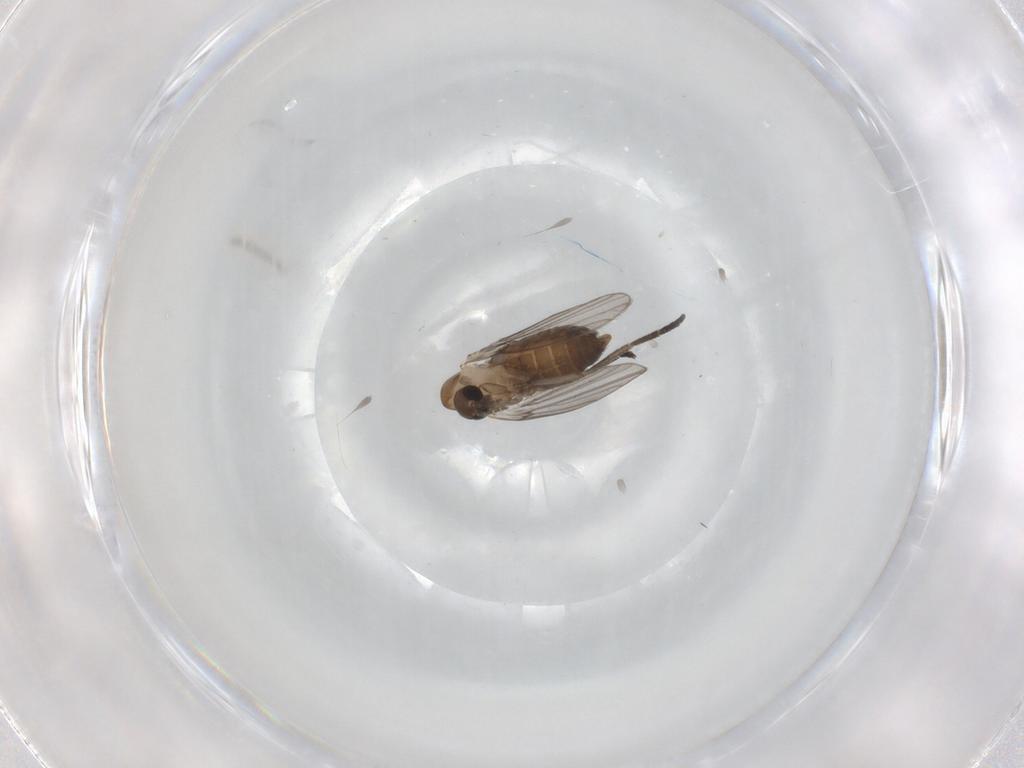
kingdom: Animalia
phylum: Arthropoda
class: Insecta
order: Diptera
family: Psychodidae
